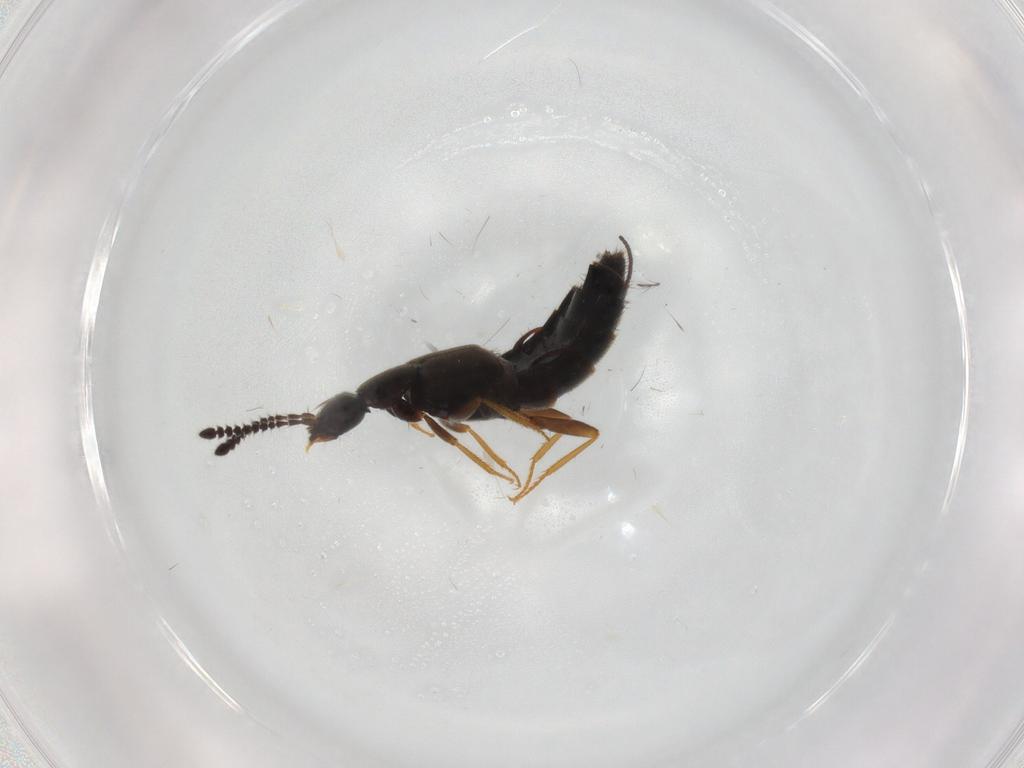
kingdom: Animalia
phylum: Arthropoda
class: Insecta
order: Coleoptera
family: Staphylinidae
